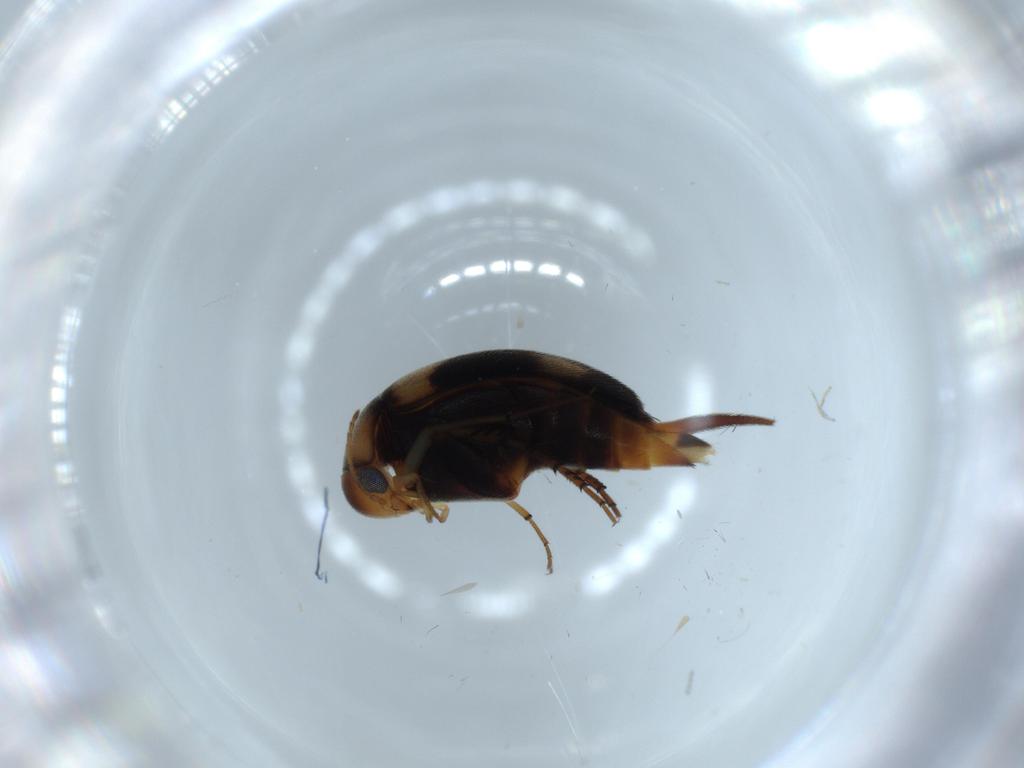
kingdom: Animalia
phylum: Arthropoda
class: Insecta
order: Coleoptera
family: Mordellidae
